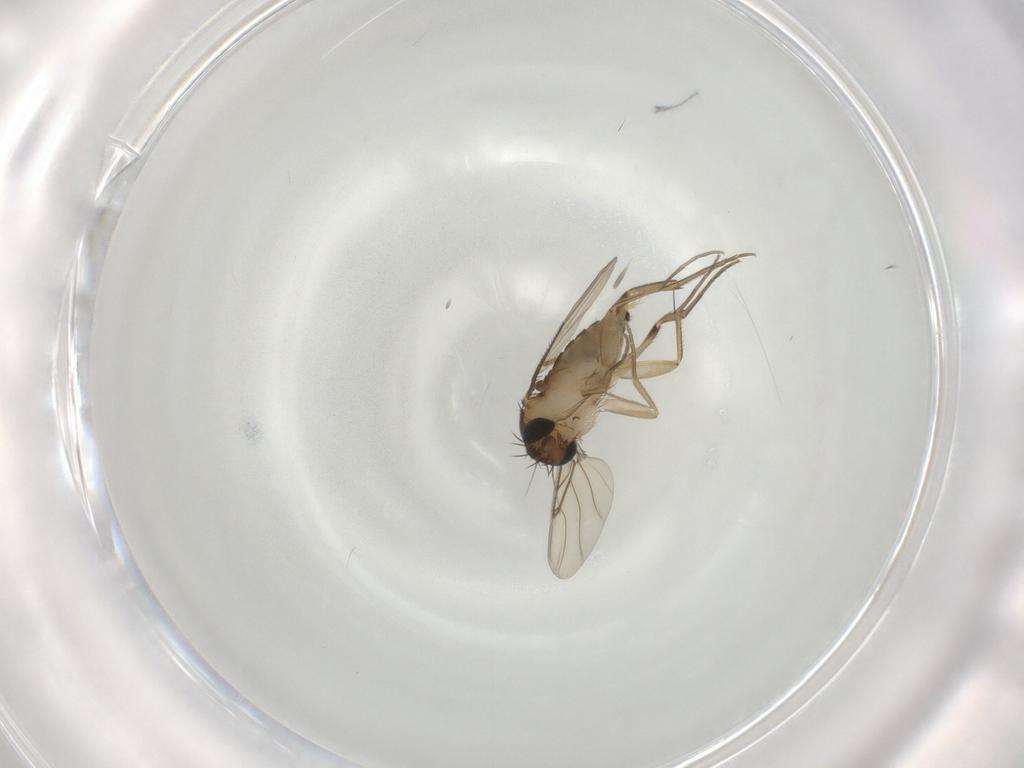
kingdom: Animalia
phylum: Arthropoda
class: Insecta
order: Diptera
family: Phoridae
